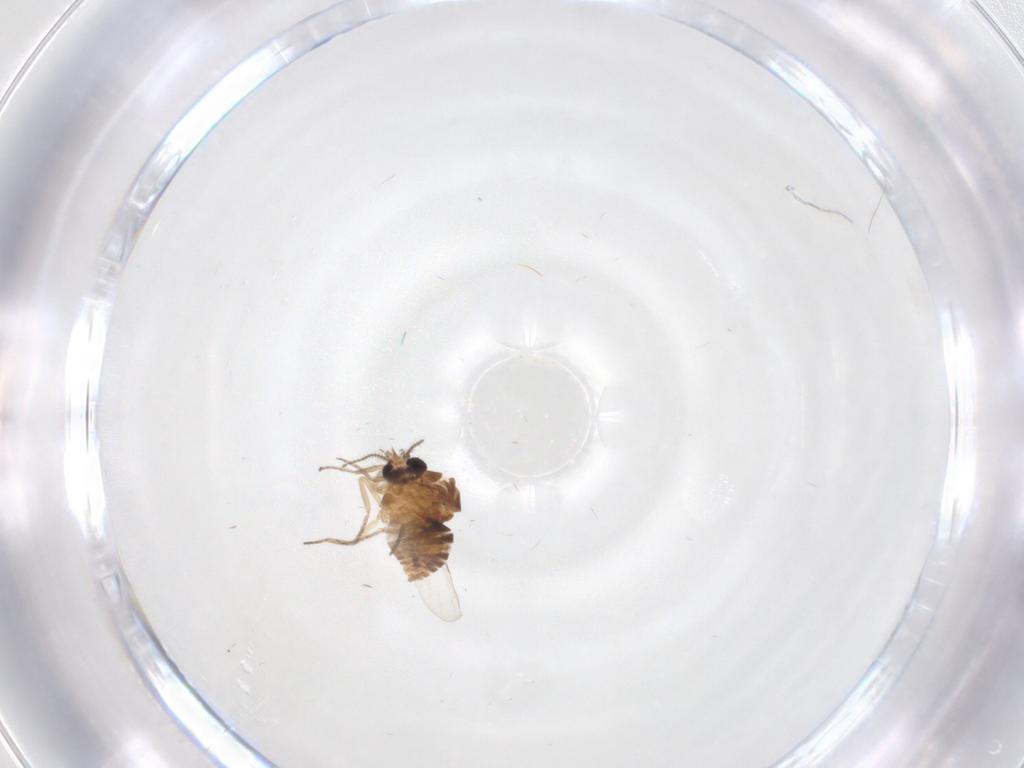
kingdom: Animalia
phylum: Arthropoda
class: Insecta
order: Diptera
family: Ceratopogonidae
